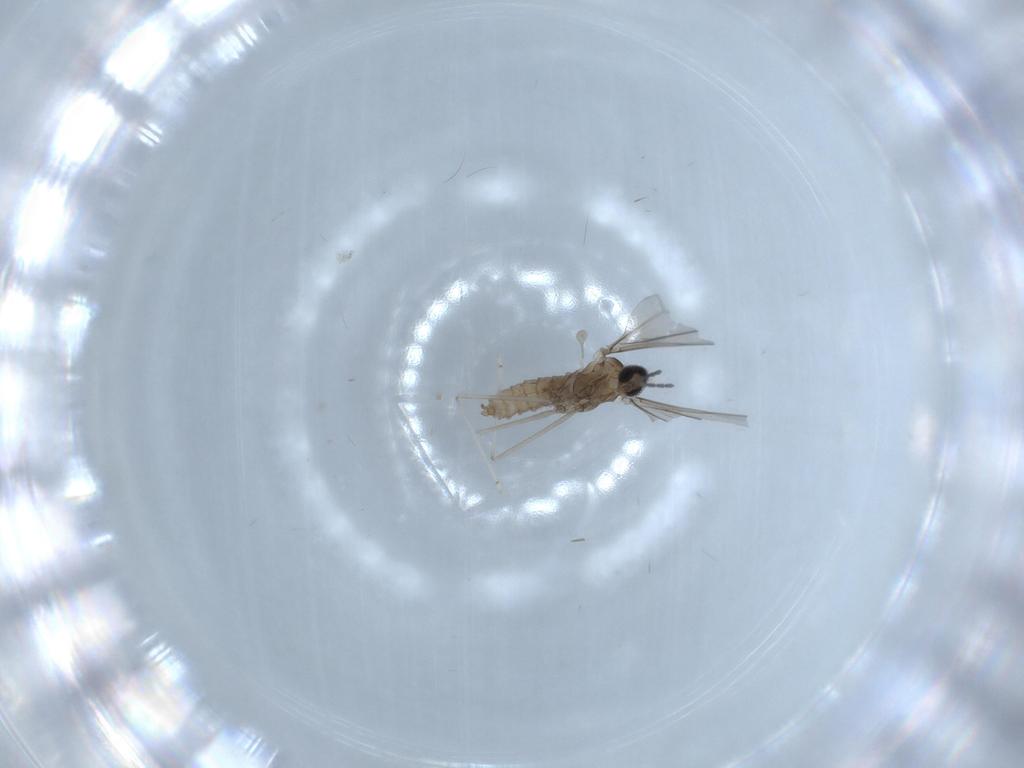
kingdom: Animalia
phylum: Arthropoda
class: Insecta
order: Diptera
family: Cecidomyiidae
